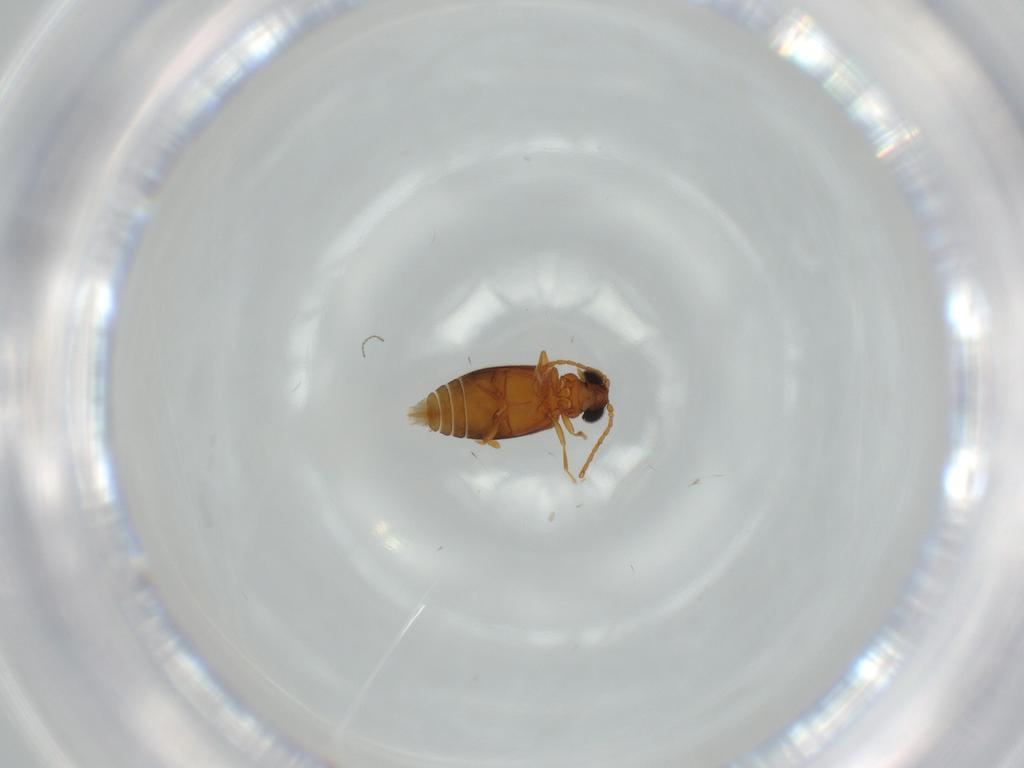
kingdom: Animalia
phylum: Arthropoda
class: Insecta
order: Coleoptera
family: Aderidae
